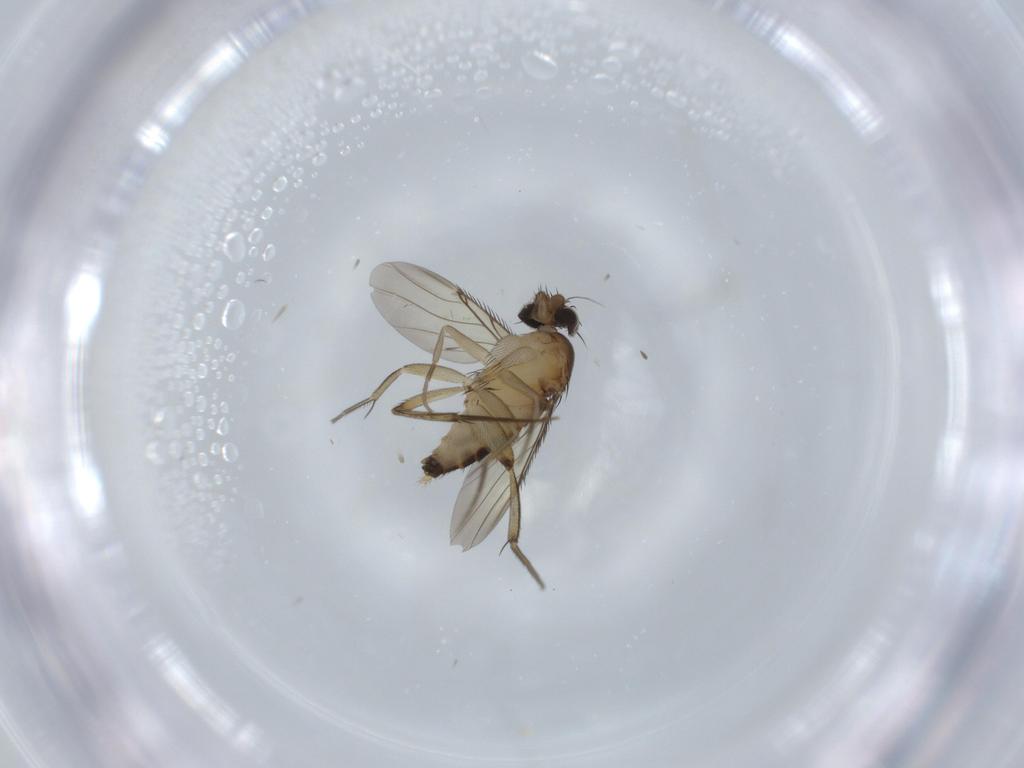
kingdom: Animalia
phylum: Arthropoda
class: Insecta
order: Diptera
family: Phoridae
